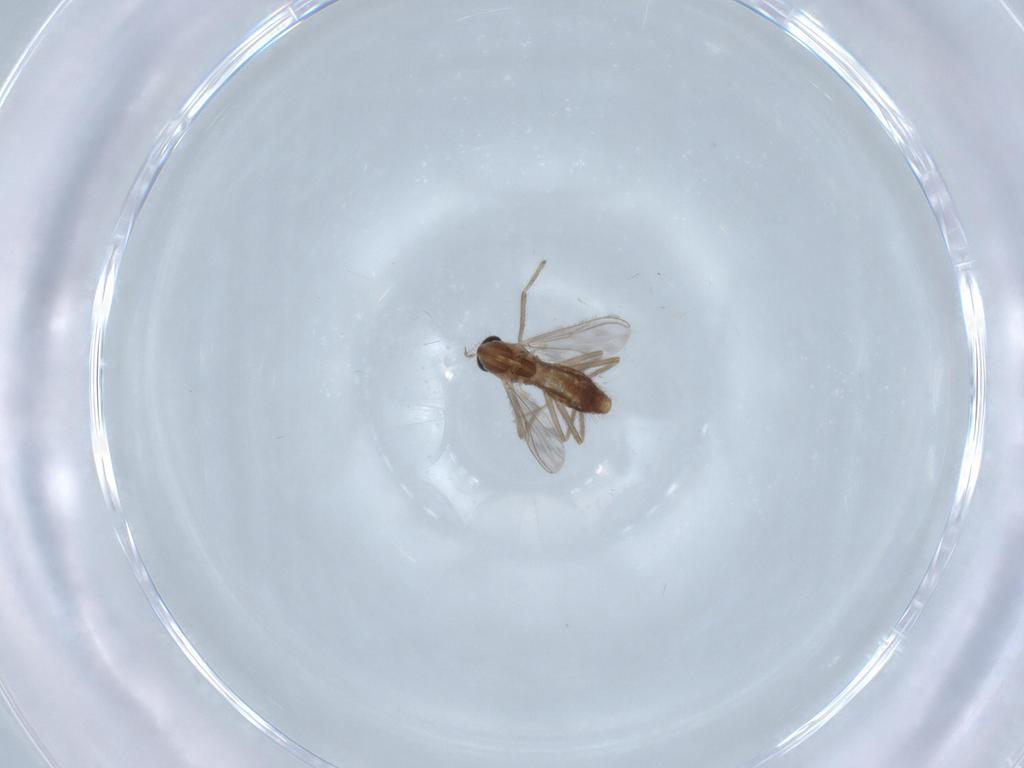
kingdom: Animalia
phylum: Arthropoda
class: Insecta
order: Diptera
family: Chironomidae
